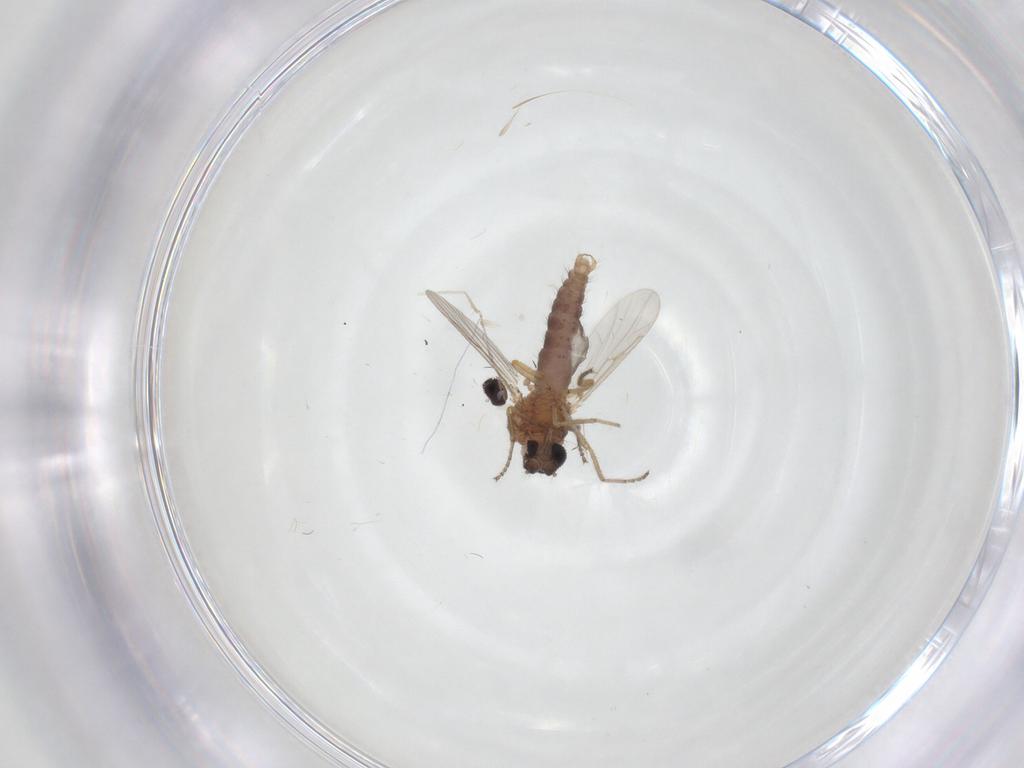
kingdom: Animalia
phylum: Arthropoda
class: Insecta
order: Diptera
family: Ceratopogonidae
